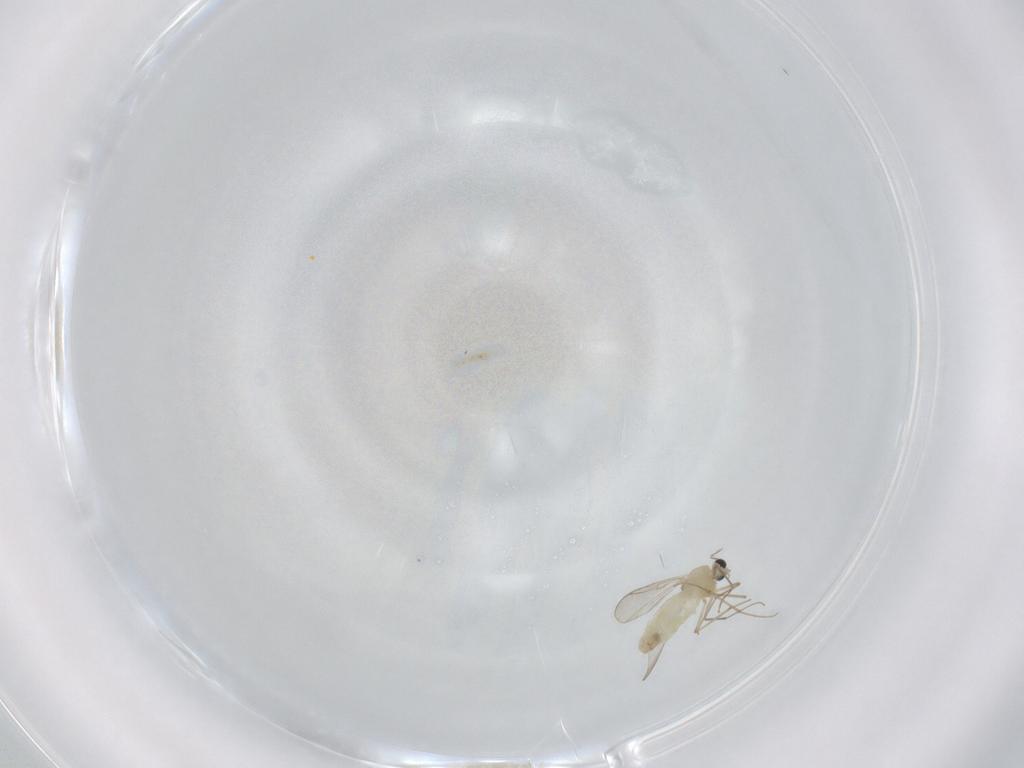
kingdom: Animalia
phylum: Arthropoda
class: Insecta
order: Diptera
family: Chironomidae
